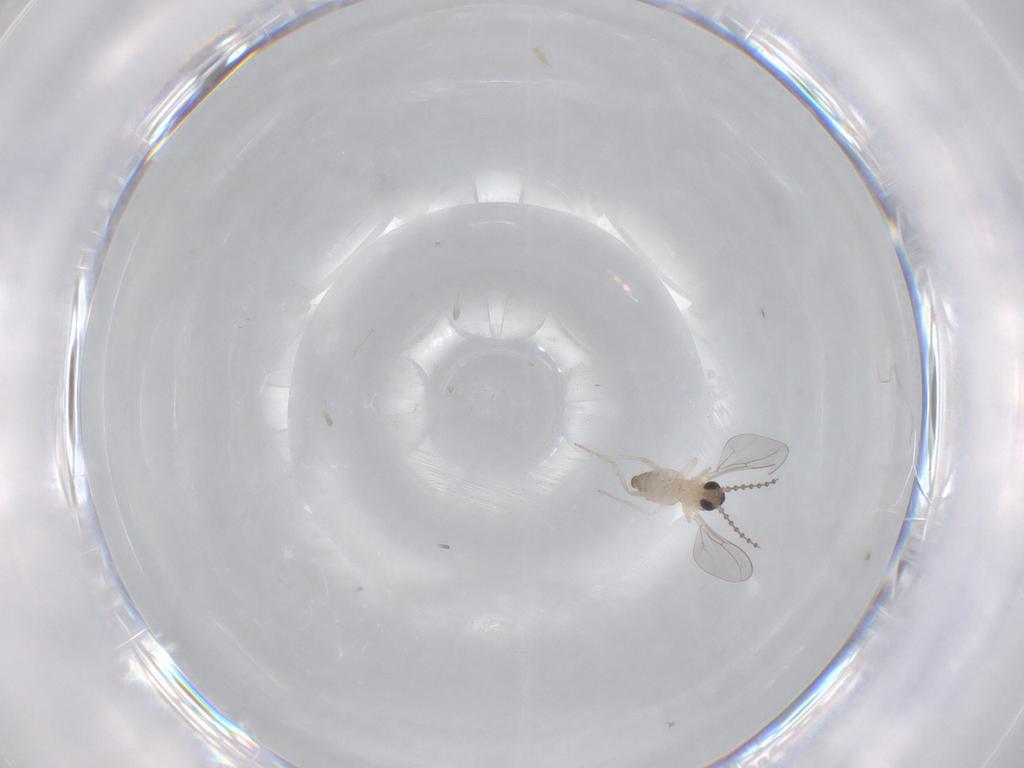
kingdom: Animalia
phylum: Arthropoda
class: Insecta
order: Diptera
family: Cecidomyiidae
